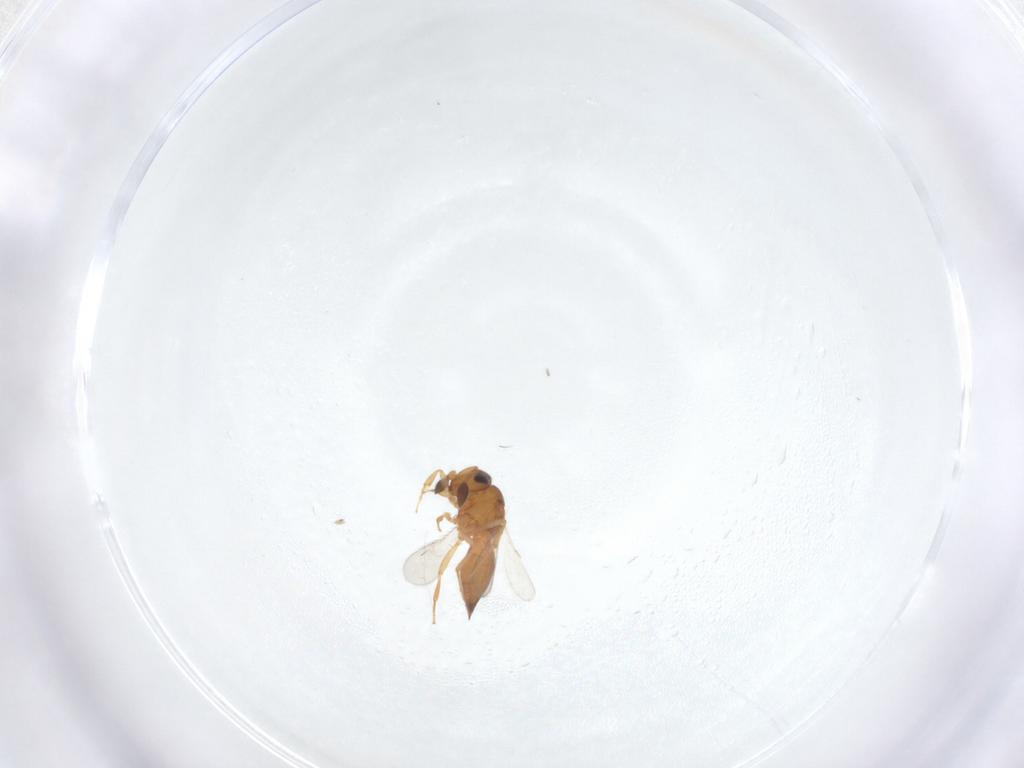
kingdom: Animalia
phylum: Arthropoda
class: Insecta
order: Hymenoptera
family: Scelionidae
